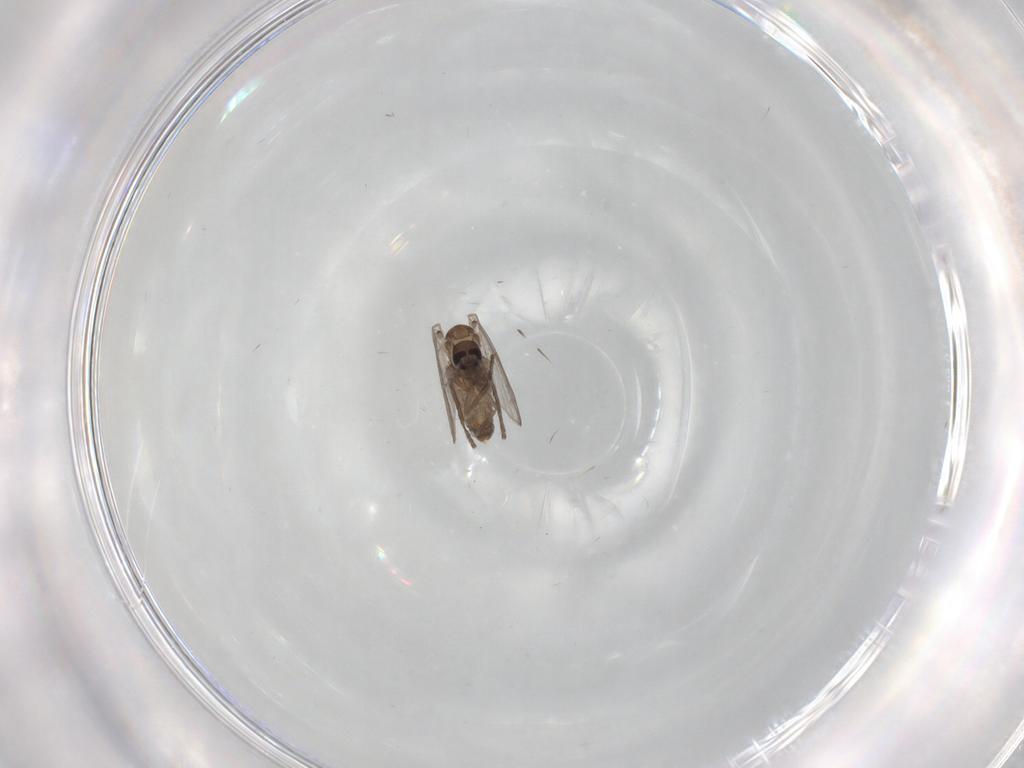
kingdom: Animalia
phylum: Arthropoda
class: Insecta
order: Diptera
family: Psychodidae
